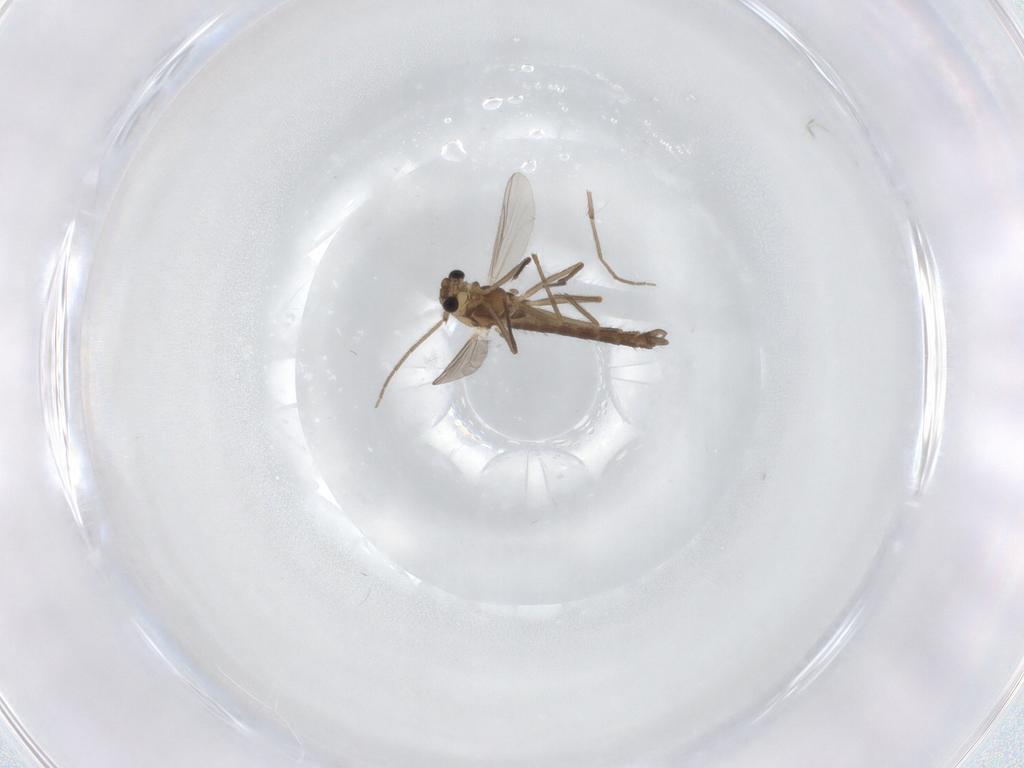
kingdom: Animalia
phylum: Arthropoda
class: Insecta
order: Diptera
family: Chironomidae
